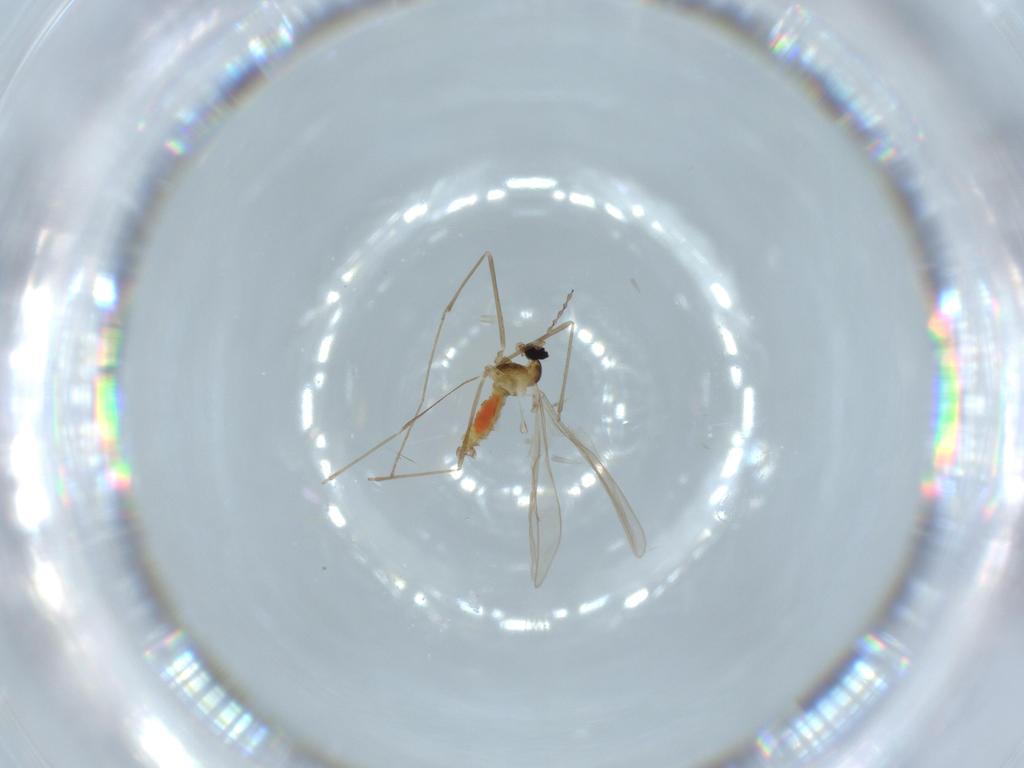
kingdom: Animalia
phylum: Arthropoda
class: Insecta
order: Diptera
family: Cecidomyiidae
